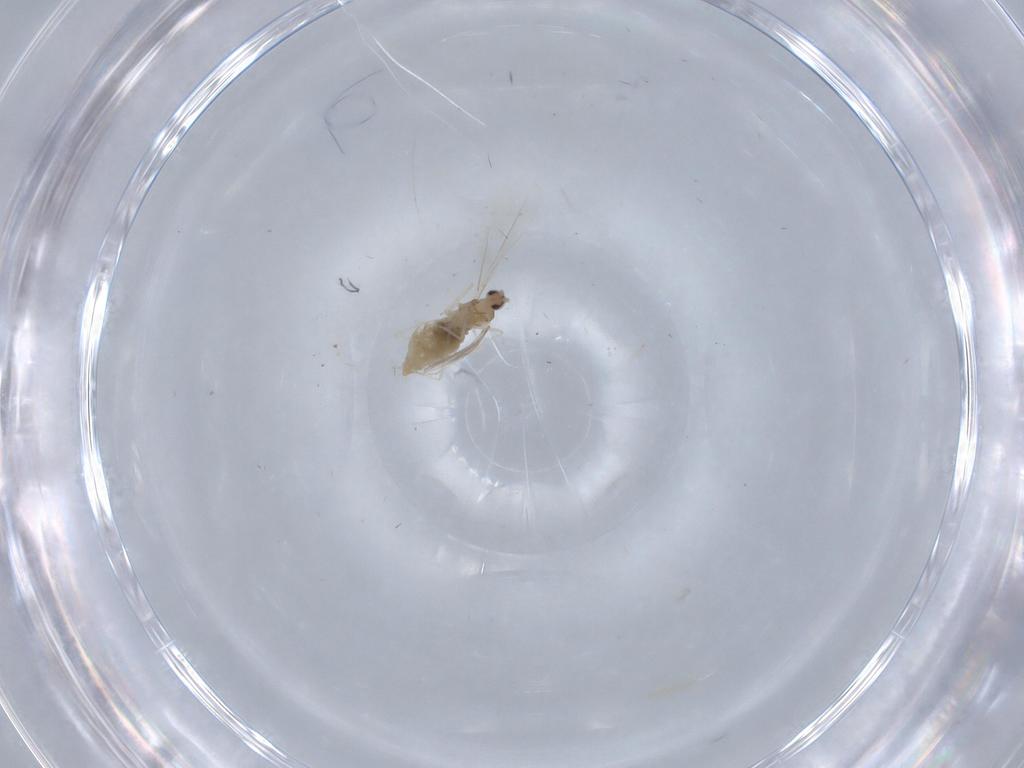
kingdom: Animalia
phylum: Arthropoda
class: Insecta
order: Diptera
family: Cecidomyiidae
